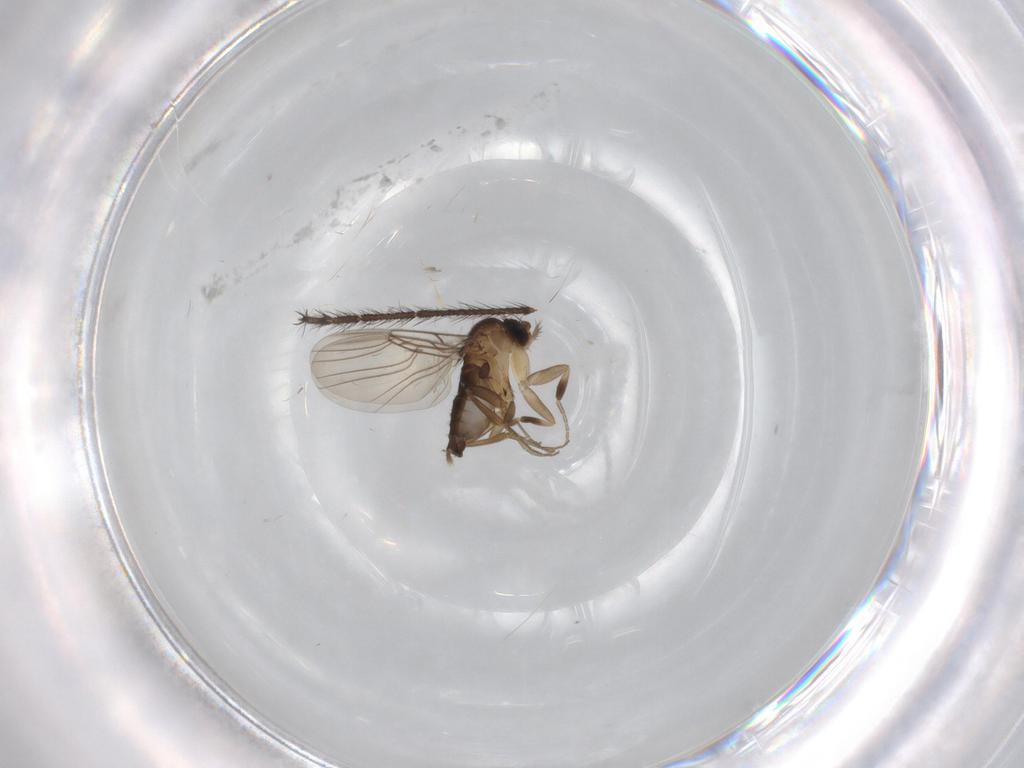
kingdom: Animalia
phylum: Arthropoda
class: Insecta
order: Diptera
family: Phoridae
